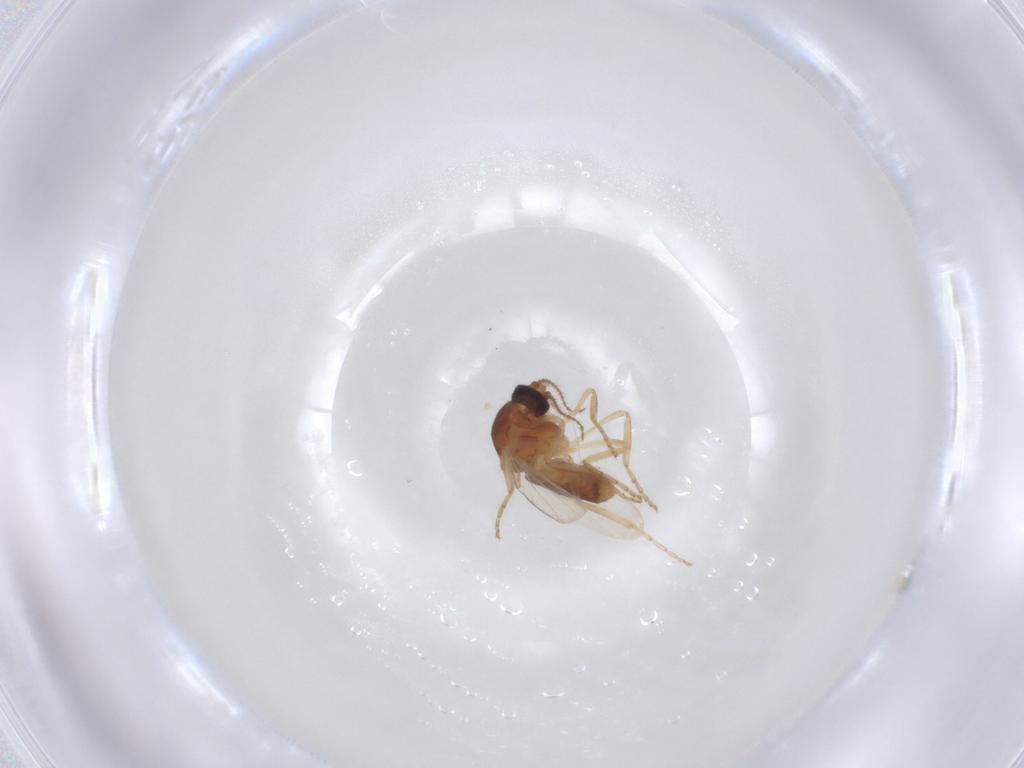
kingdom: Animalia
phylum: Arthropoda
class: Insecta
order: Diptera
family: Ceratopogonidae
